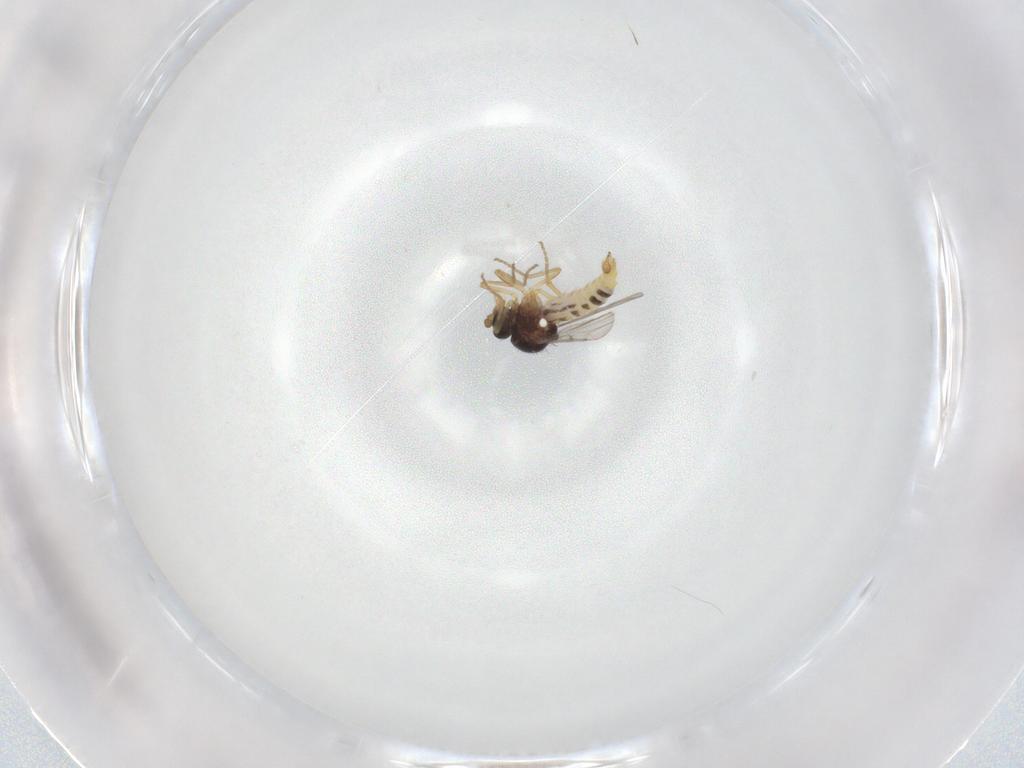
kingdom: Animalia
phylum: Arthropoda
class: Insecta
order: Diptera
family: Ceratopogonidae
